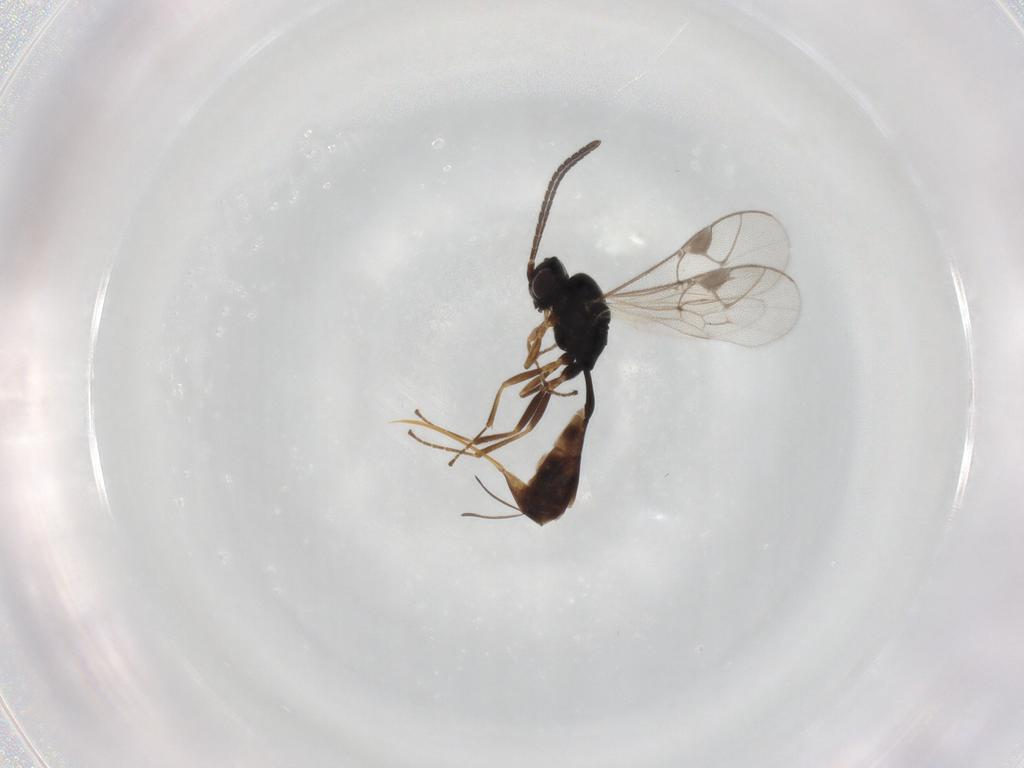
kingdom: Animalia
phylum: Arthropoda
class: Insecta
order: Hymenoptera
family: Ichneumonidae
